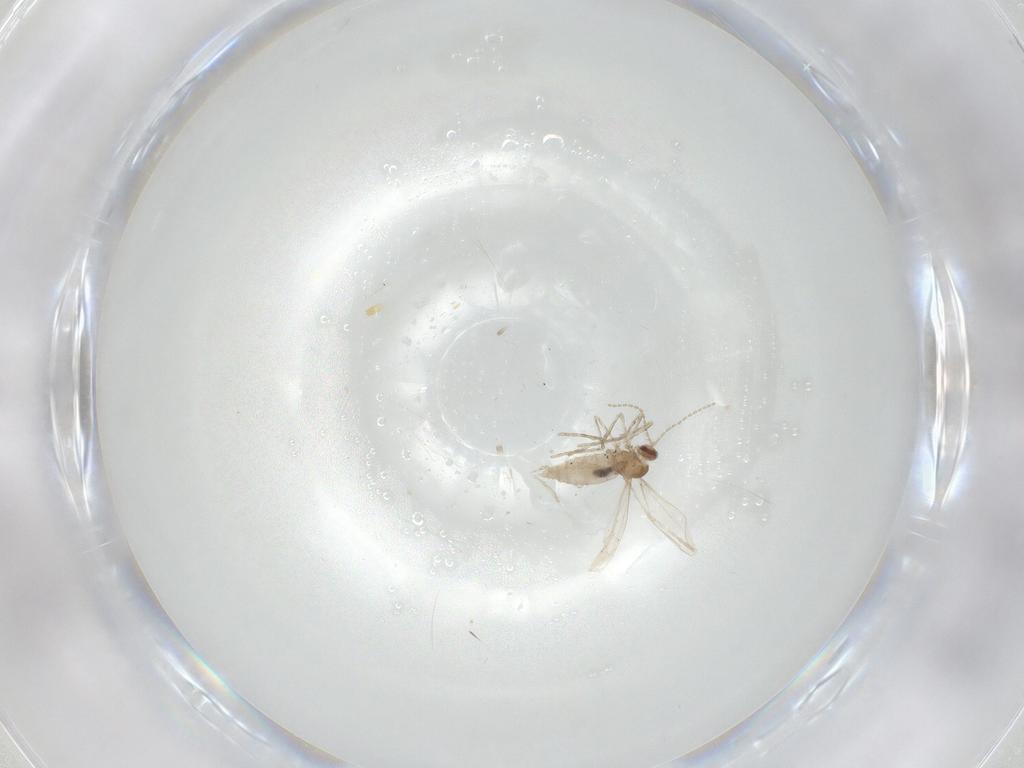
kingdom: Animalia
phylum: Arthropoda
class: Insecta
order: Diptera
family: Cecidomyiidae
